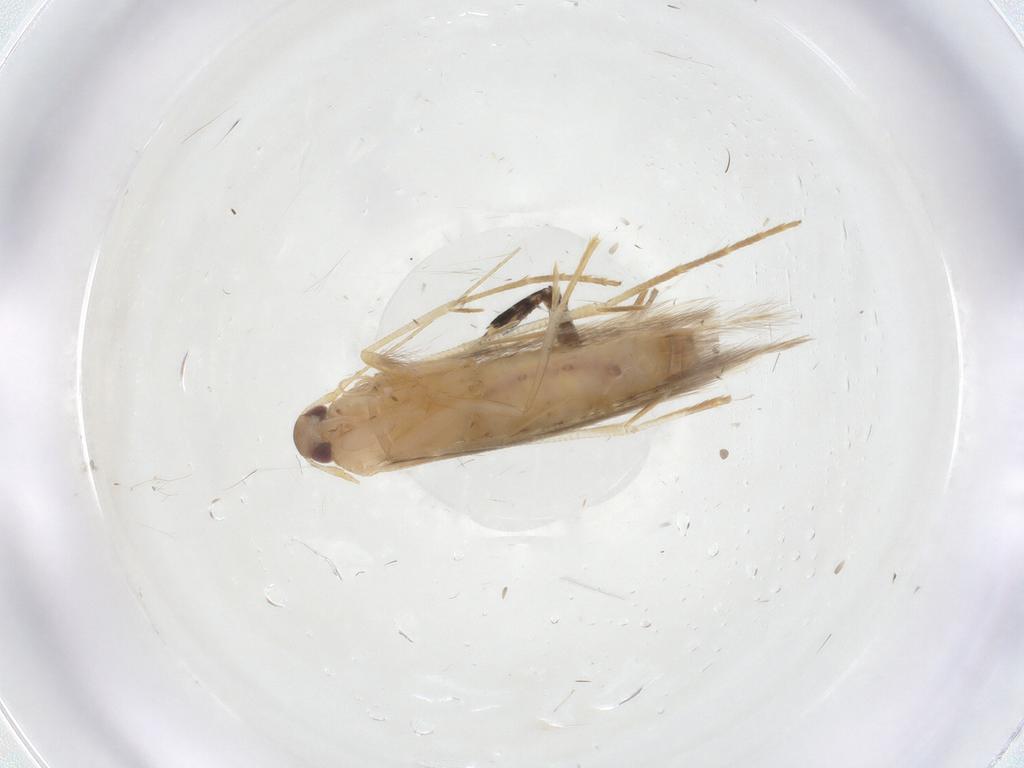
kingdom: Animalia
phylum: Arthropoda
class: Insecta
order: Lepidoptera
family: Cosmopterigidae
